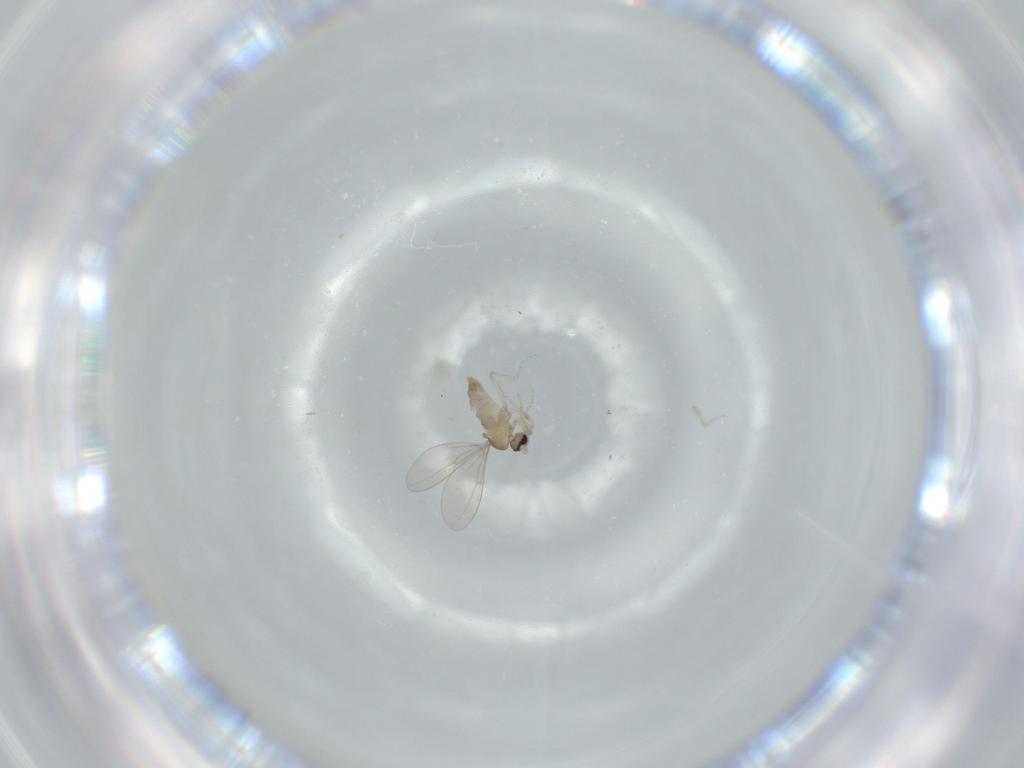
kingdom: Animalia
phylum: Arthropoda
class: Insecta
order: Diptera
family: Cecidomyiidae
